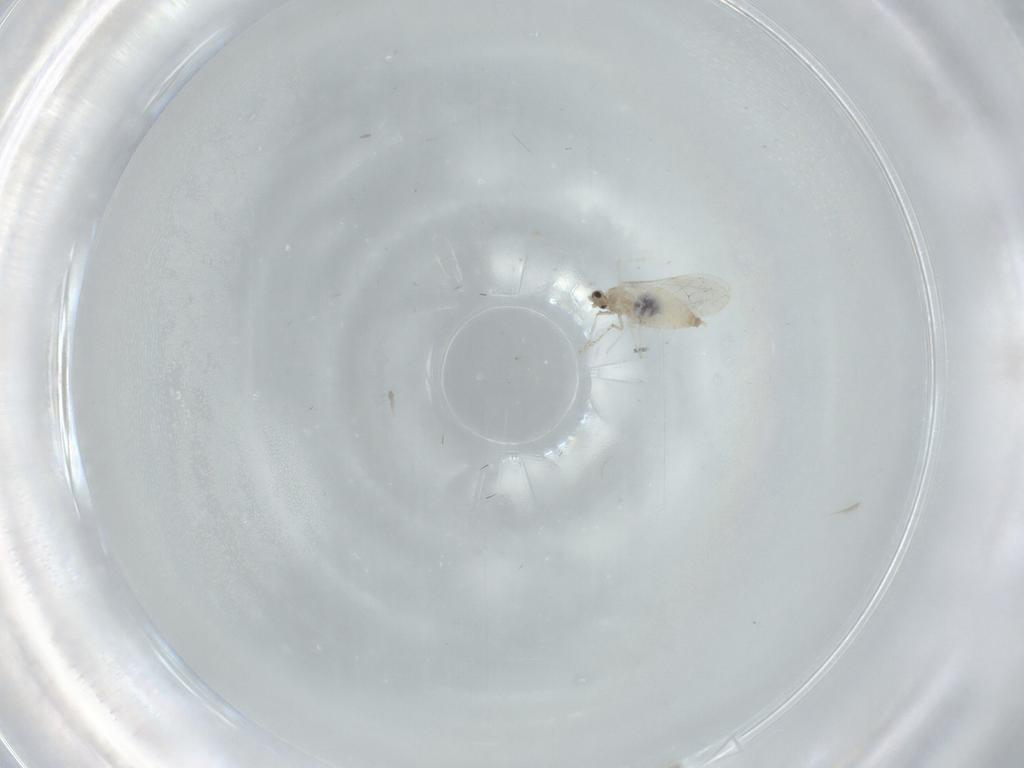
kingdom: Animalia
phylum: Arthropoda
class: Insecta
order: Diptera
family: Cecidomyiidae
